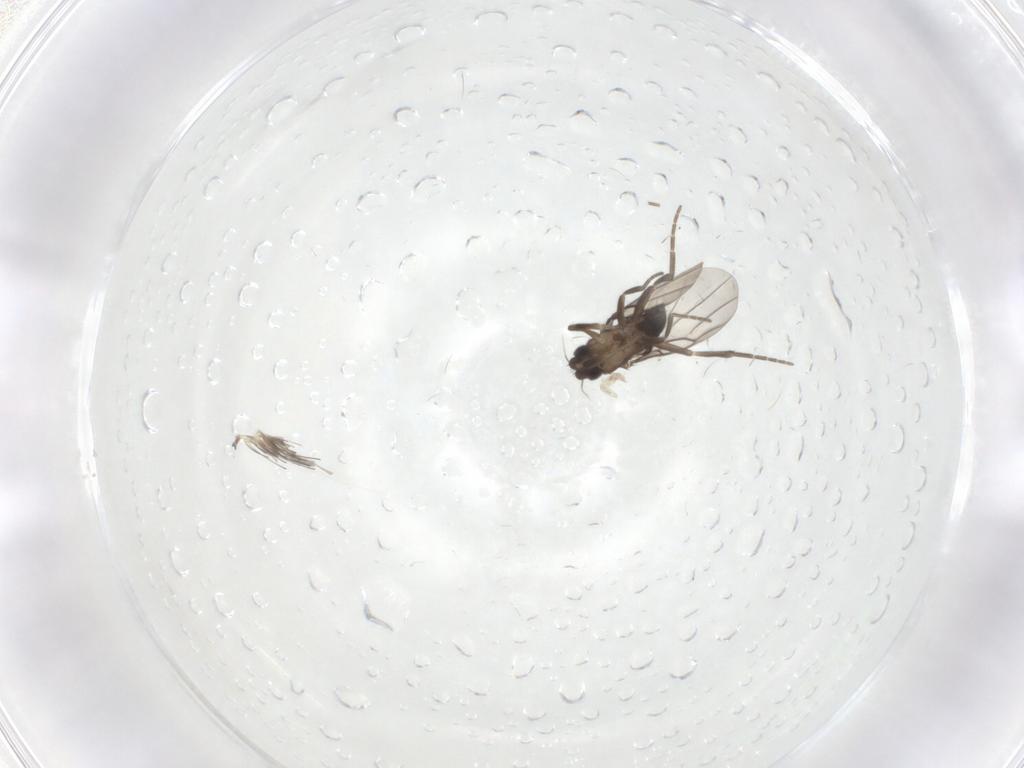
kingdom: Animalia
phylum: Arthropoda
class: Insecta
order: Diptera
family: Phoridae
